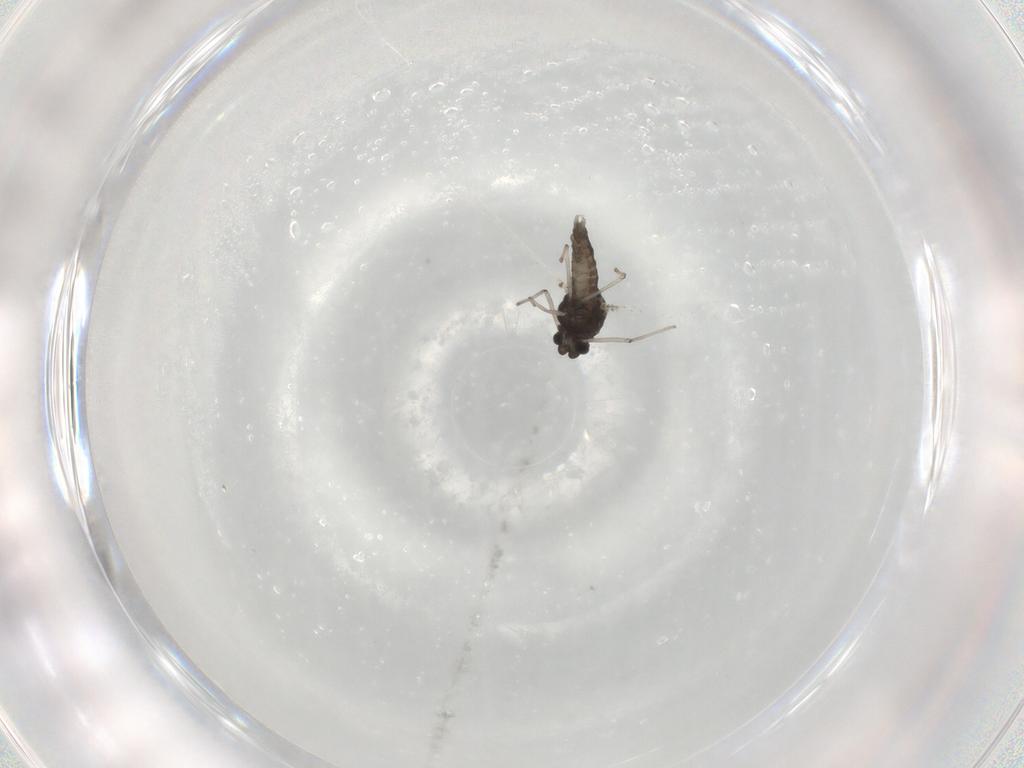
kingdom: Animalia
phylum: Arthropoda
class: Insecta
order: Diptera
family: Chironomidae
